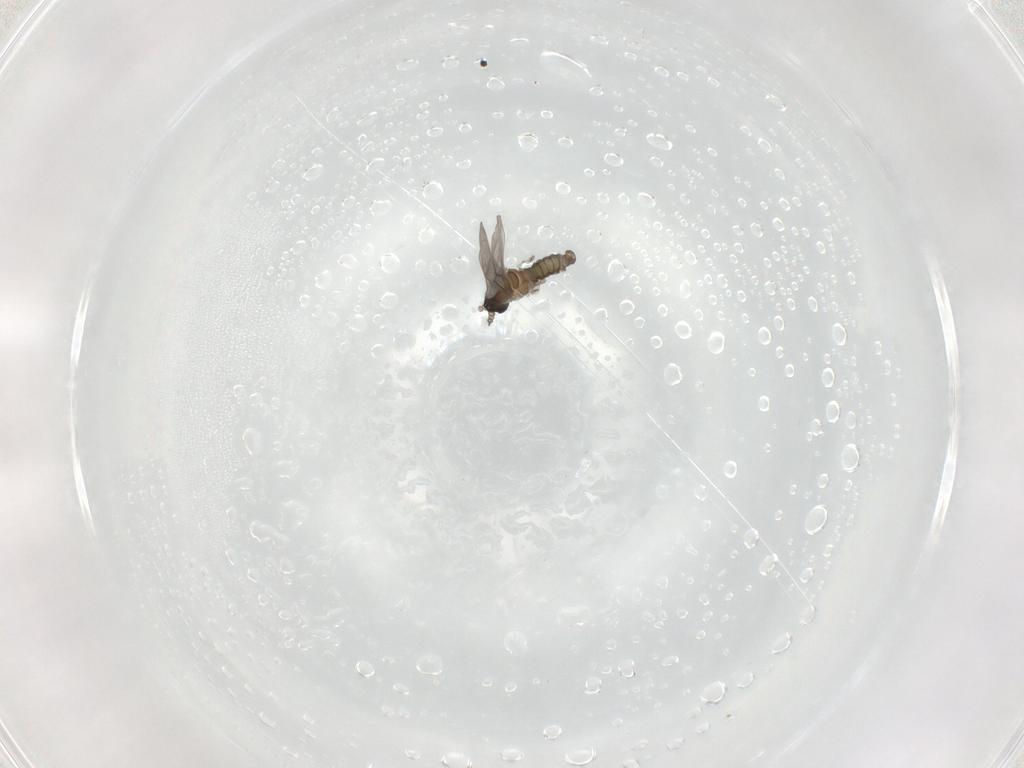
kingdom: Animalia
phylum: Arthropoda
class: Insecta
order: Diptera
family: Cecidomyiidae
